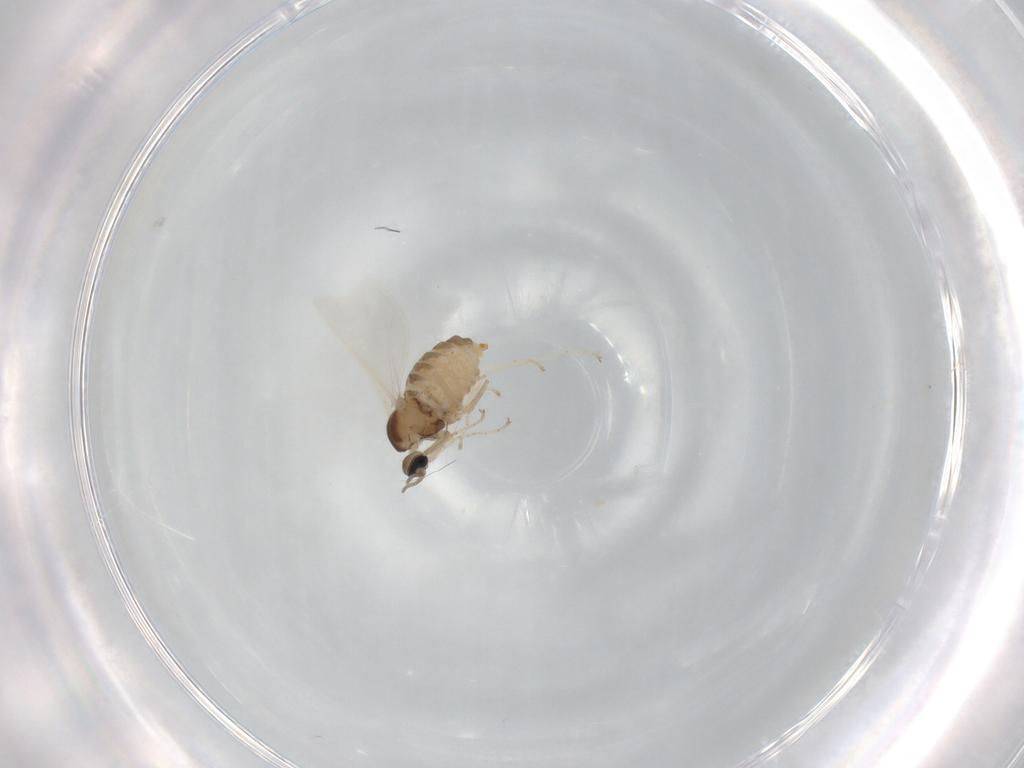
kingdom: Animalia
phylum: Arthropoda
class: Insecta
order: Diptera
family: Cecidomyiidae
